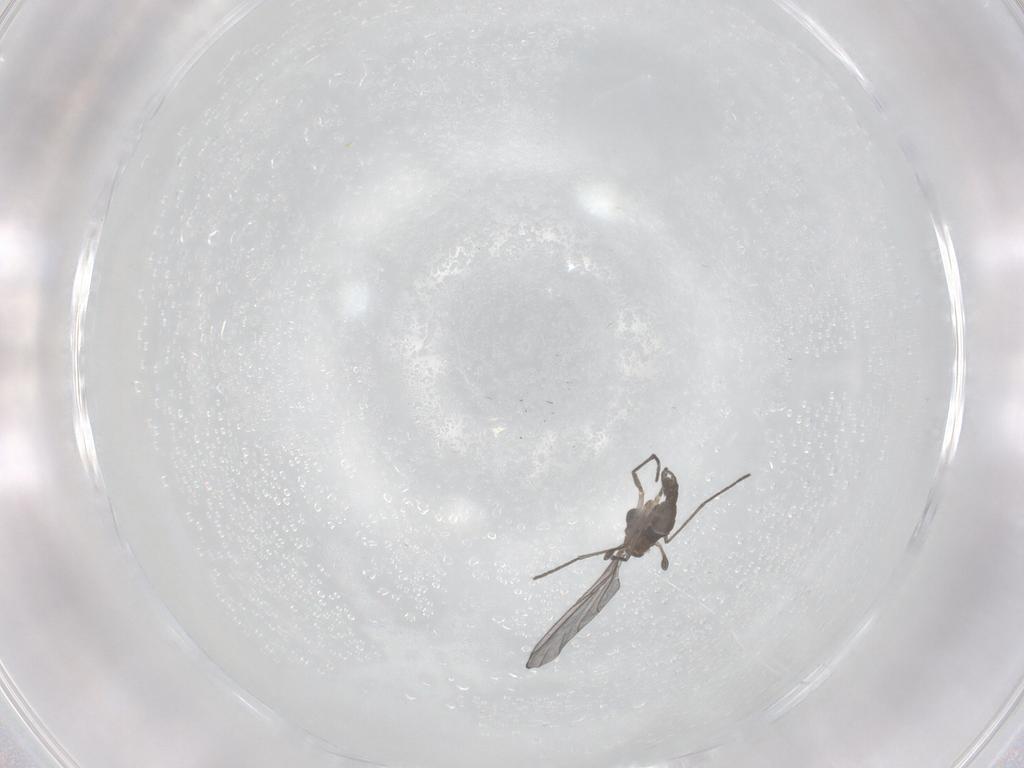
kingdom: Animalia
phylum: Arthropoda
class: Insecta
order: Diptera
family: Sciaridae
